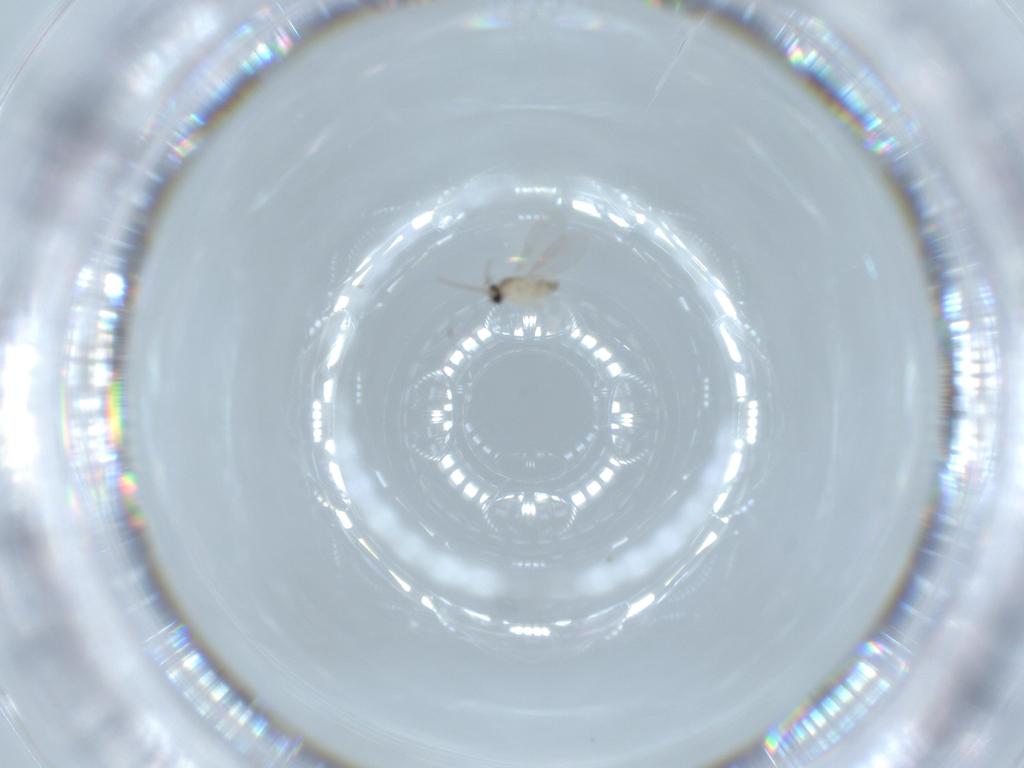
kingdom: Animalia
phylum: Arthropoda
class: Insecta
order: Diptera
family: Cecidomyiidae
